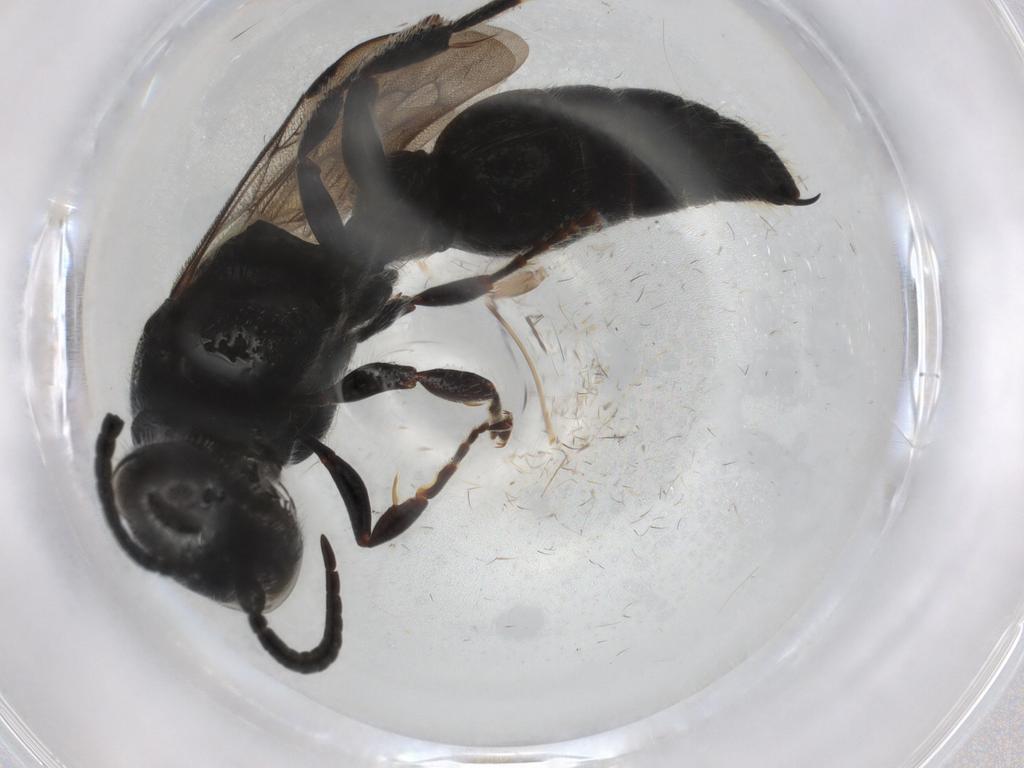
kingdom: Animalia
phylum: Arthropoda
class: Insecta
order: Hymenoptera
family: Tiphiidae
